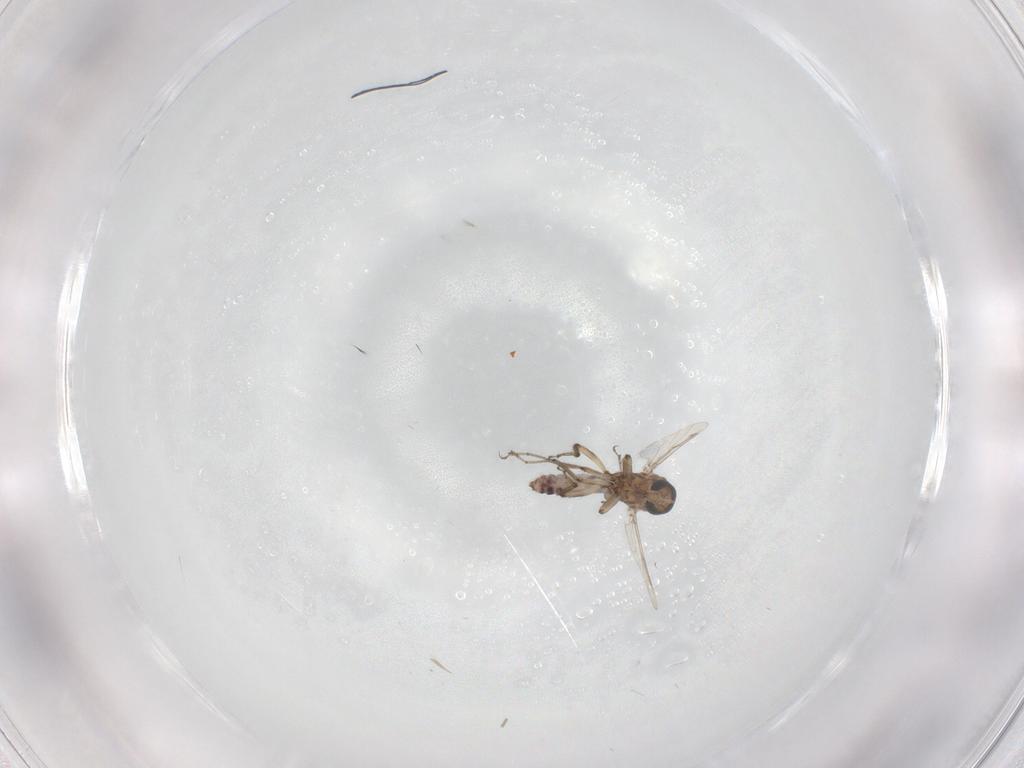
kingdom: Animalia
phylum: Arthropoda
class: Insecta
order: Diptera
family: Ceratopogonidae
